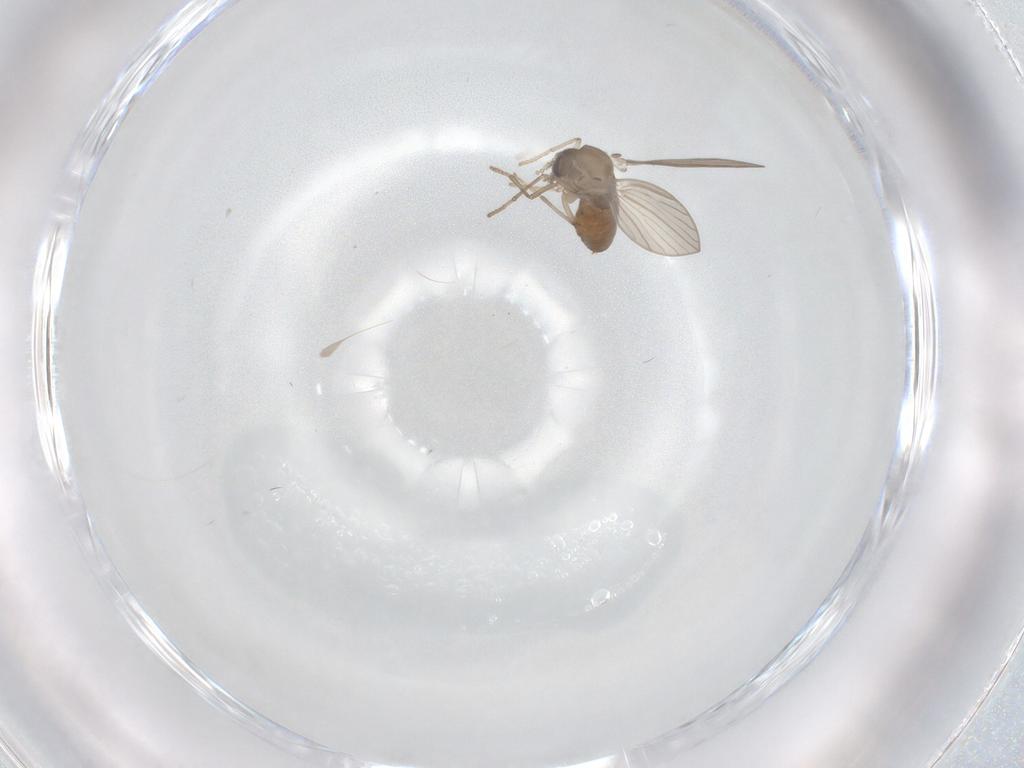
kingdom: Animalia
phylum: Arthropoda
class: Insecta
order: Diptera
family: Psychodidae
